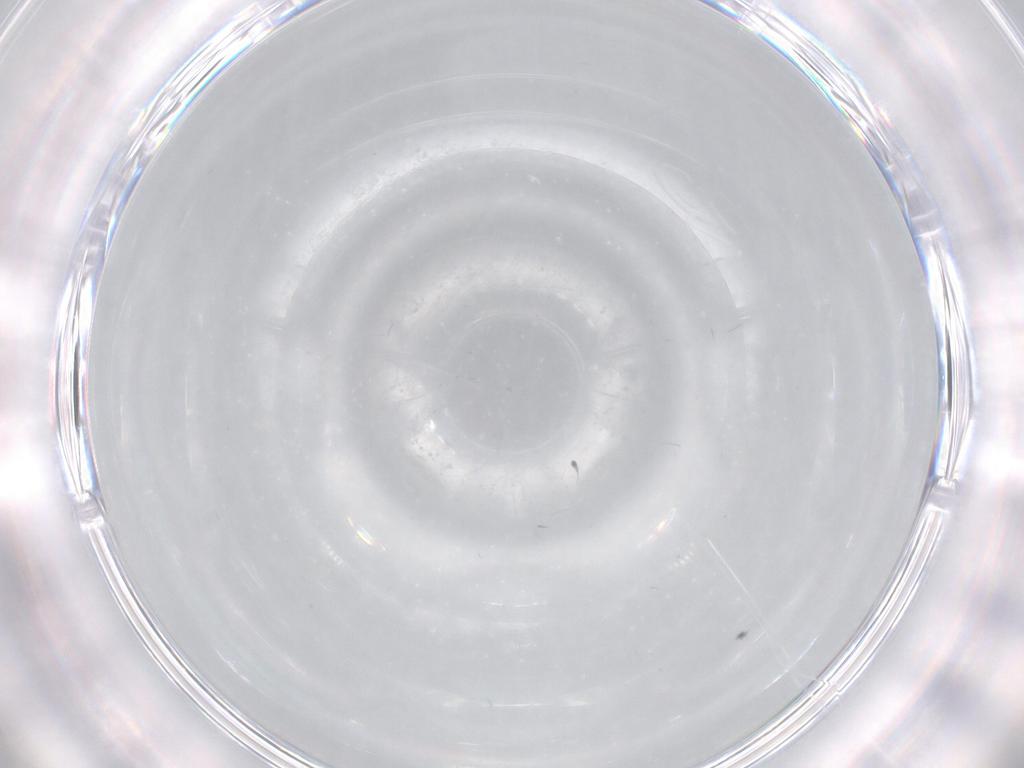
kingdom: Animalia
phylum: Arthropoda
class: Insecta
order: Diptera
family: Limoniidae
